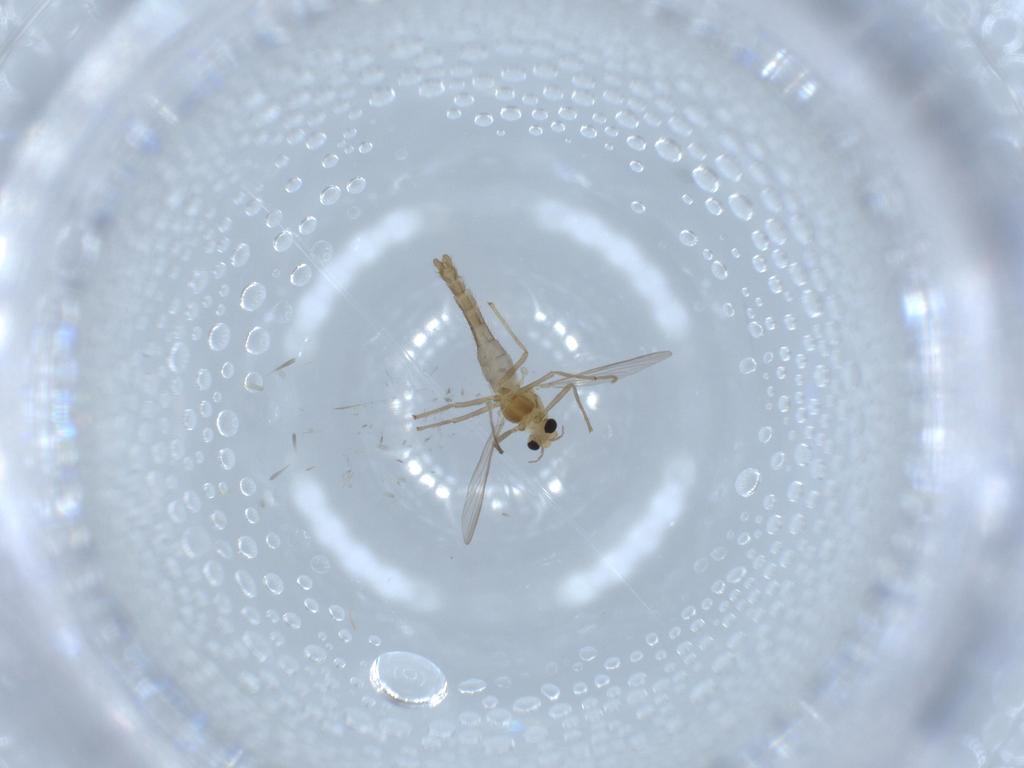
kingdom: Animalia
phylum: Arthropoda
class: Insecta
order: Diptera
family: Chironomidae
